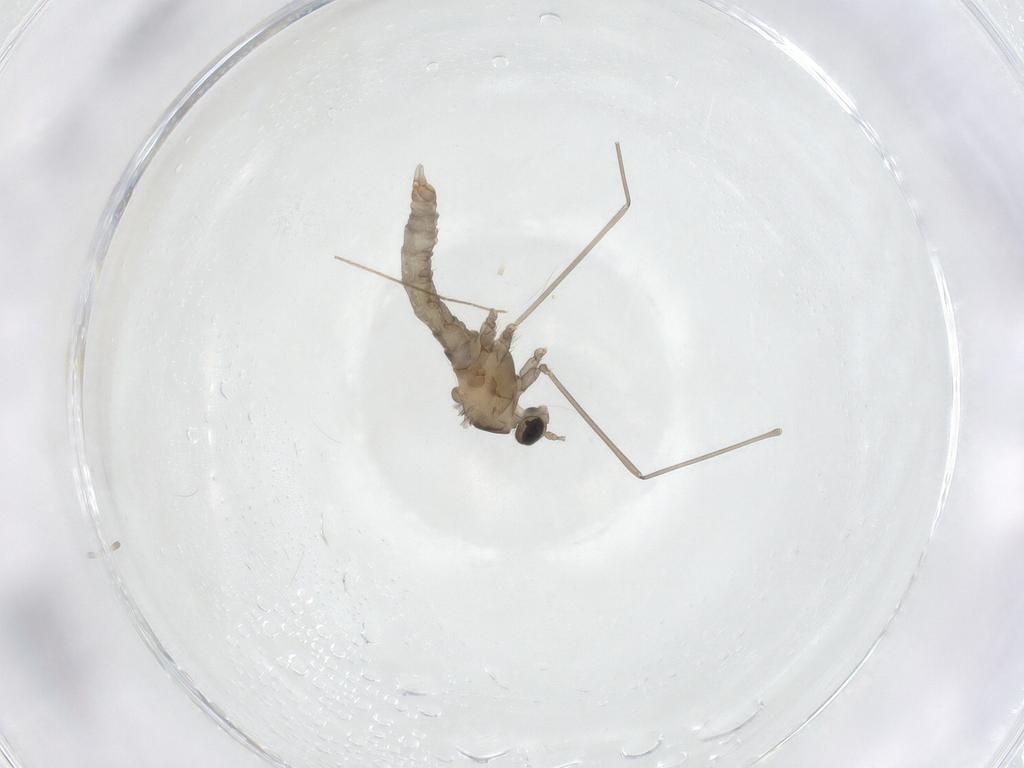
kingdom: Animalia
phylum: Arthropoda
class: Insecta
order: Diptera
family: Cecidomyiidae
